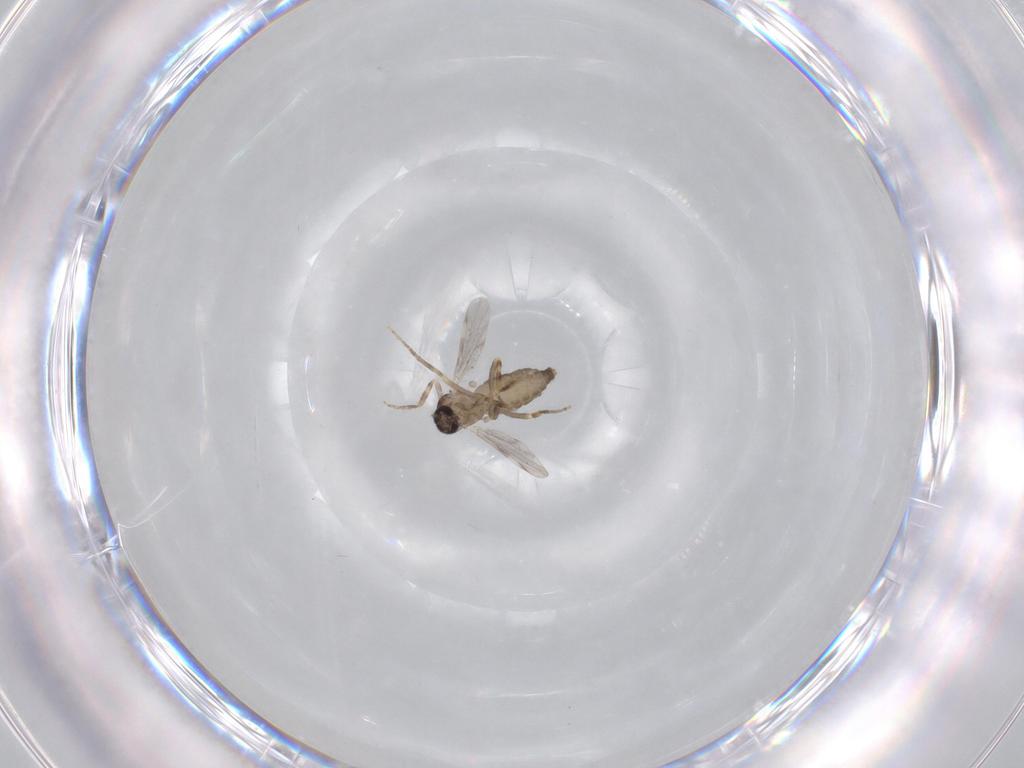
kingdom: Animalia
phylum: Arthropoda
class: Insecta
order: Diptera
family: Ceratopogonidae
